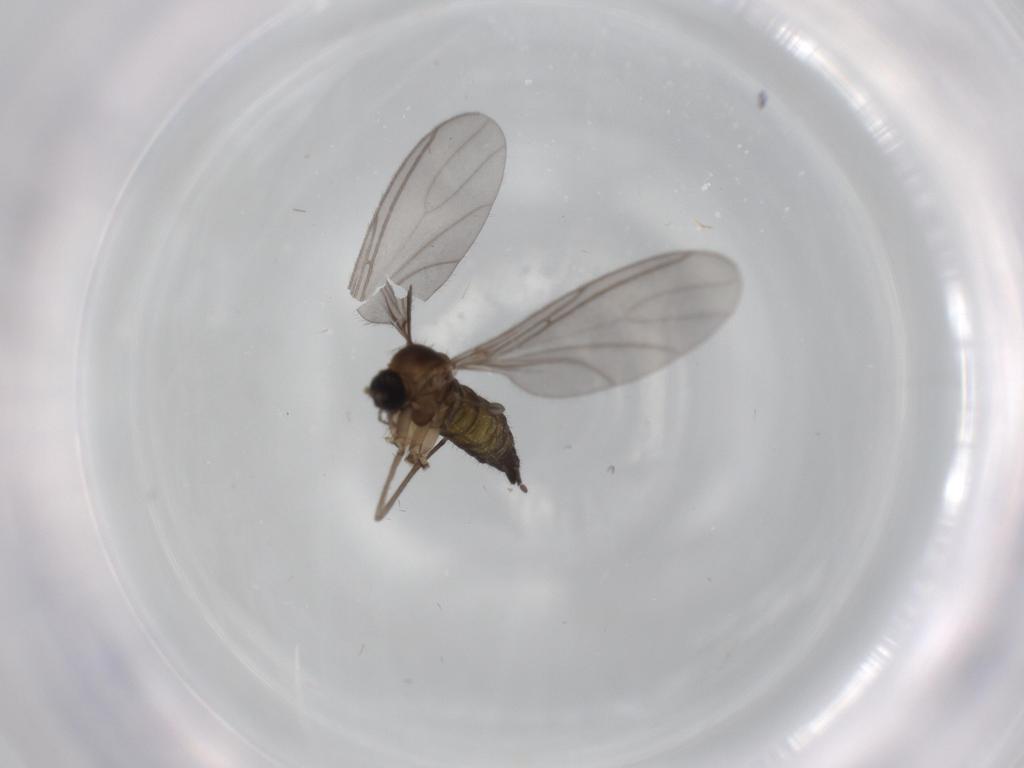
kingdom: Animalia
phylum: Arthropoda
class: Insecta
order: Diptera
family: Sciaridae
